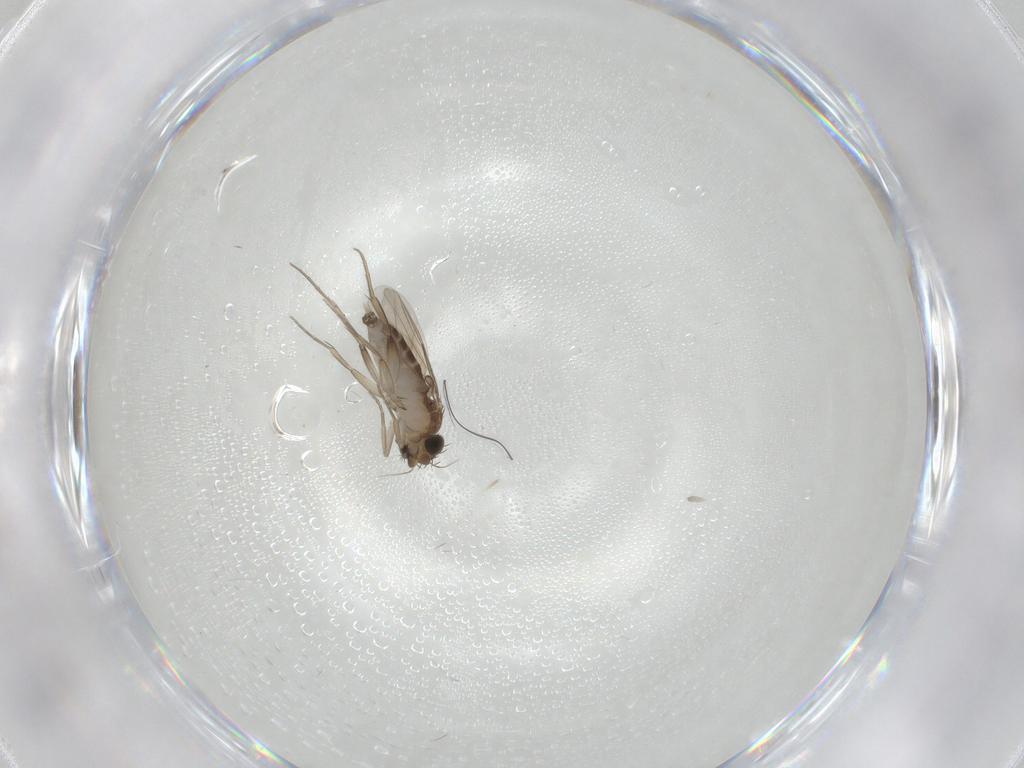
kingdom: Animalia
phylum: Arthropoda
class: Insecta
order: Diptera
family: Phoridae
